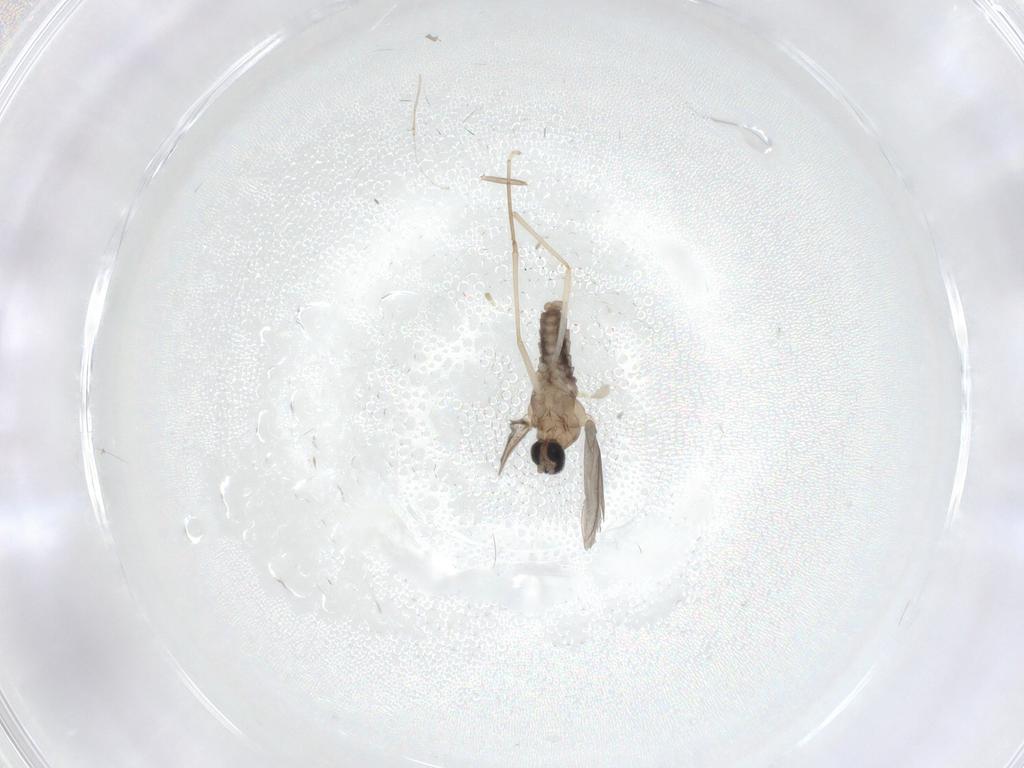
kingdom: Animalia
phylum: Arthropoda
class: Insecta
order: Diptera
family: Cecidomyiidae
